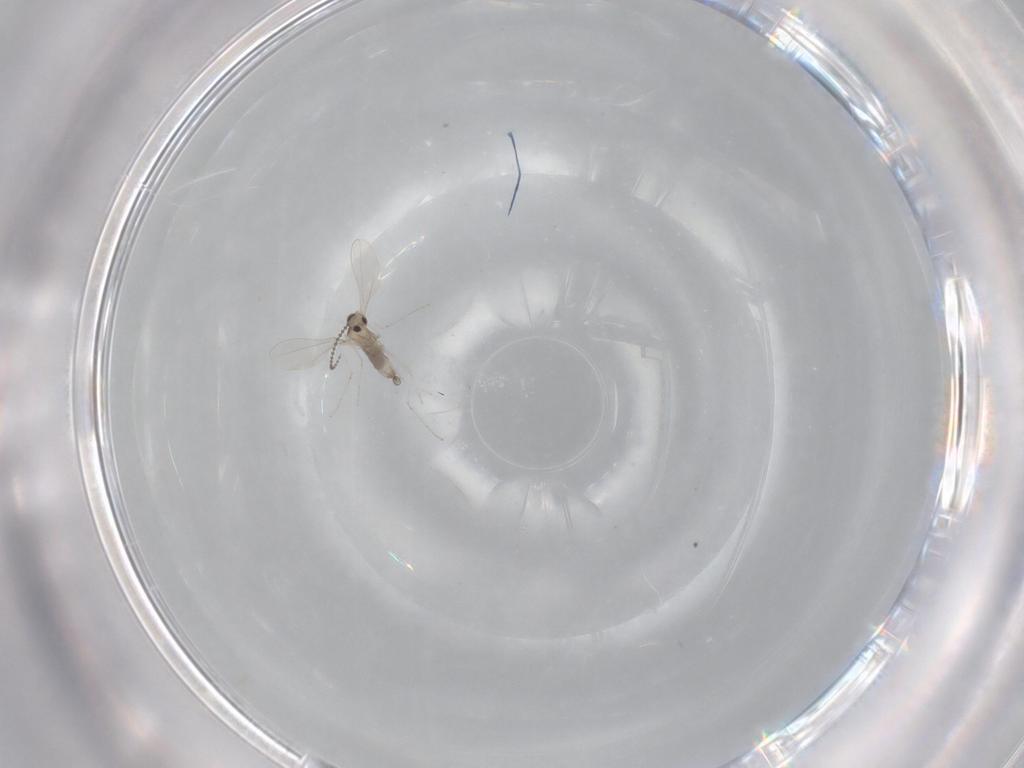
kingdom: Animalia
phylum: Arthropoda
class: Insecta
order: Diptera
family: Cecidomyiidae
